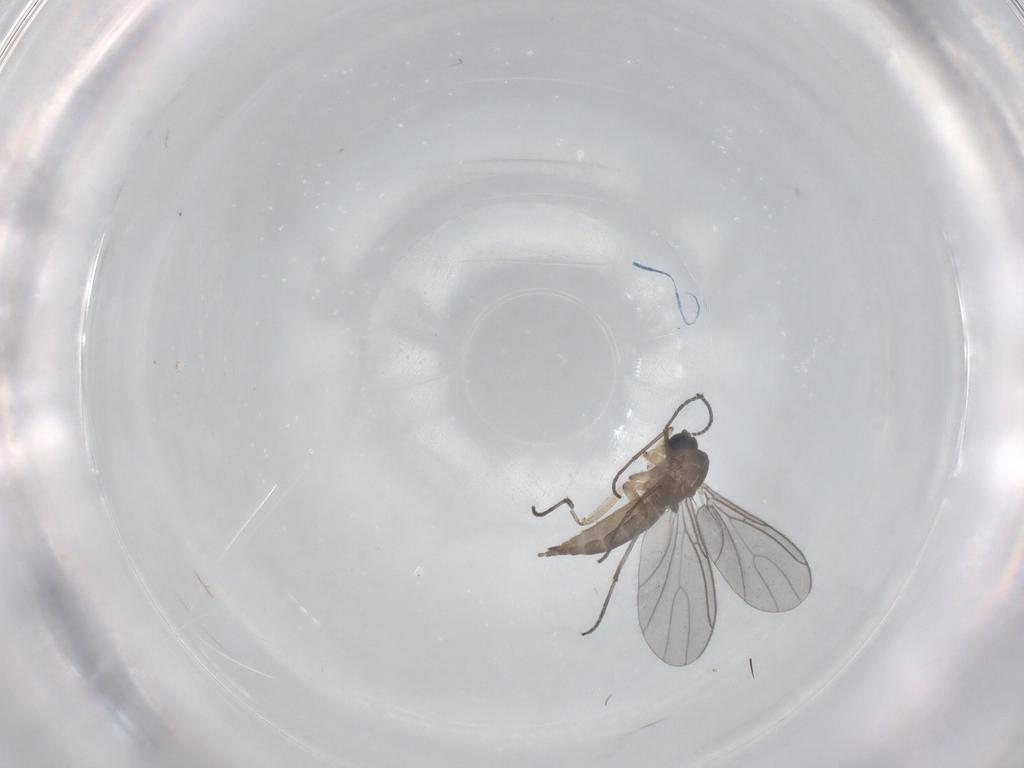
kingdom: Animalia
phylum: Arthropoda
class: Insecta
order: Diptera
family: Sciaridae
